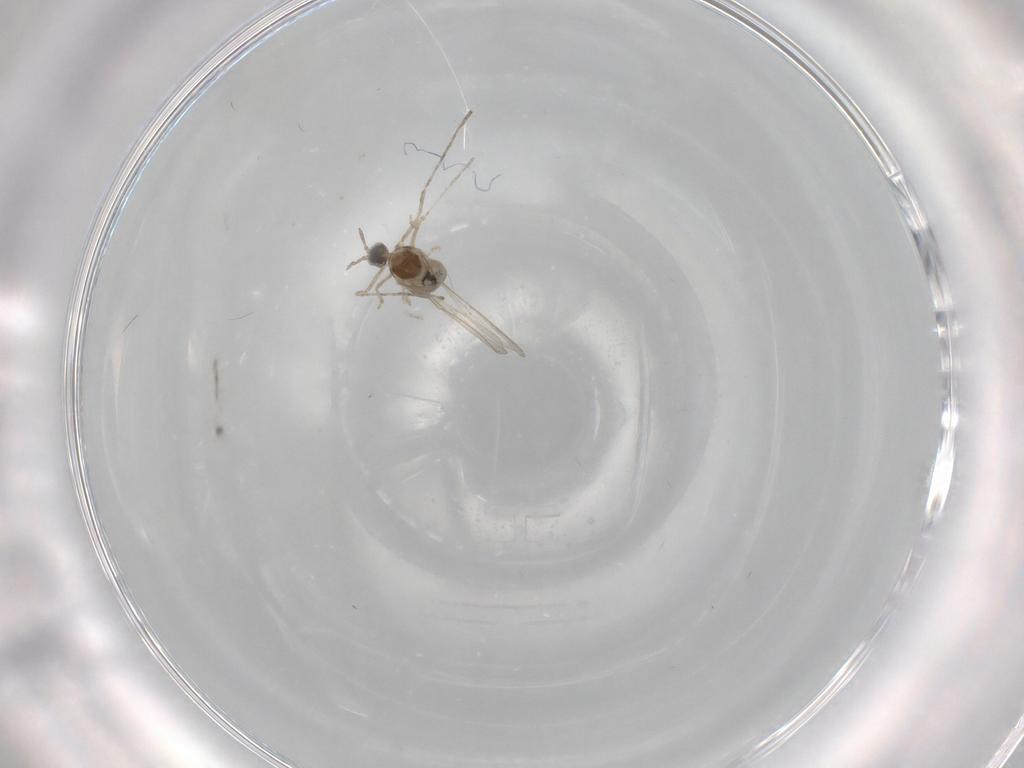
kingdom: Animalia
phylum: Arthropoda
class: Insecta
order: Diptera
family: Cecidomyiidae
